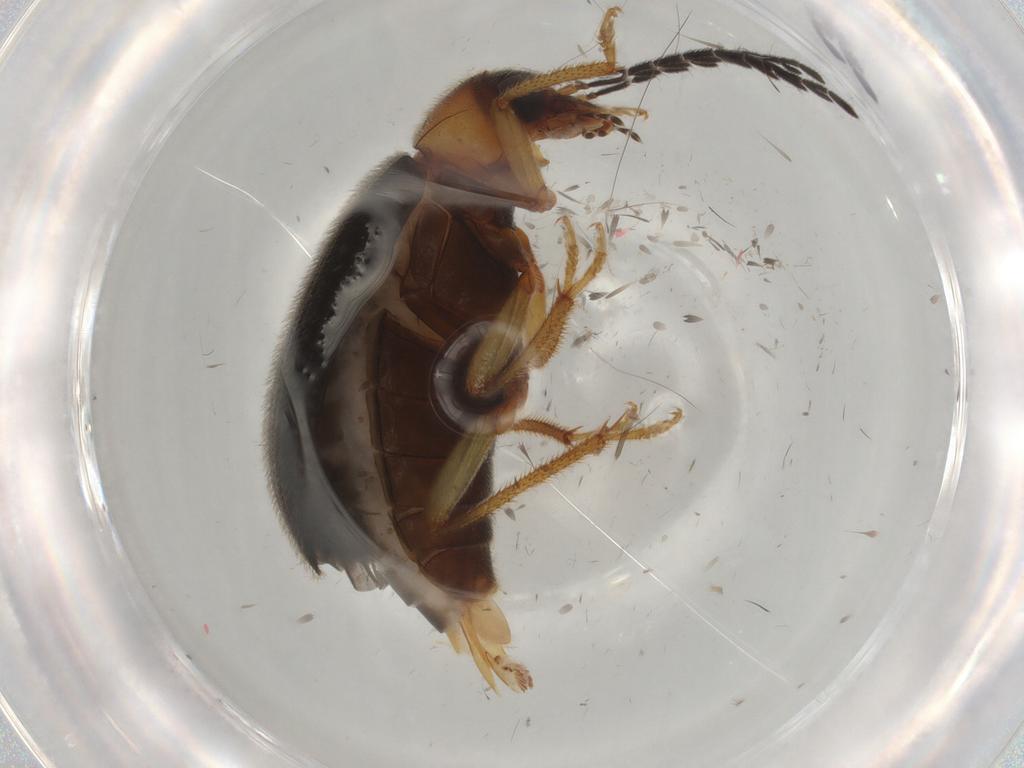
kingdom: Animalia
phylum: Arthropoda
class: Insecta
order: Coleoptera
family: Ptilodactylidae
